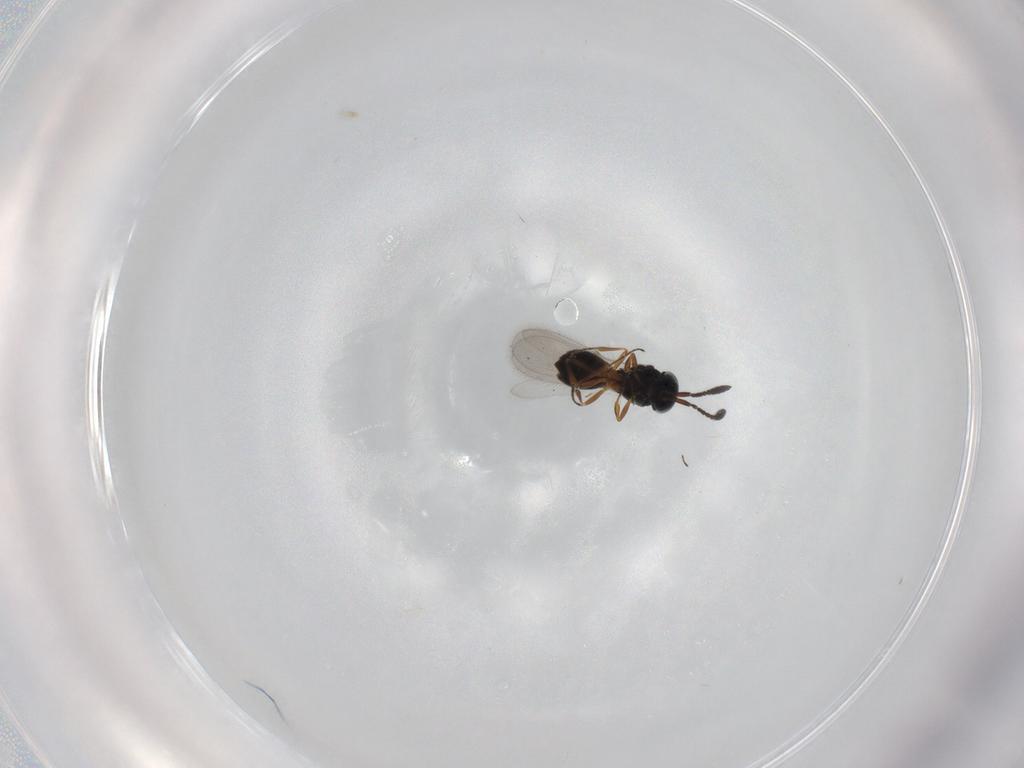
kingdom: Animalia
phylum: Arthropoda
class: Insecta
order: Hymenoptera
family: Scelionidae
